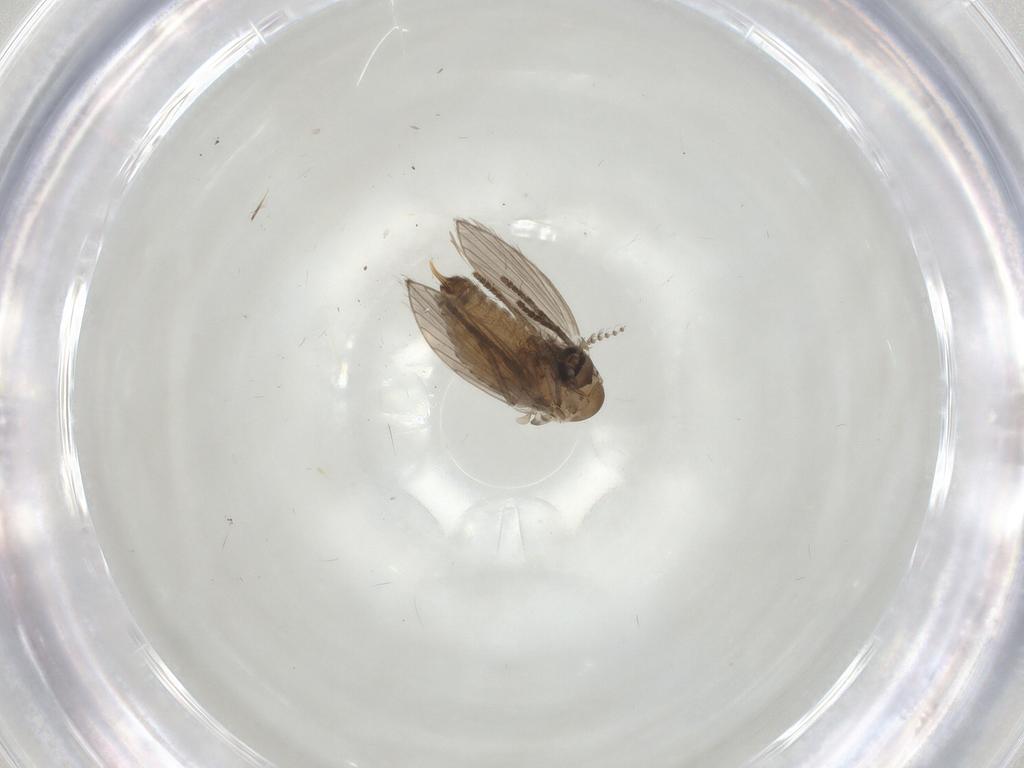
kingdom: Animalia
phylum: Arthropoda
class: Insecta
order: Diptera
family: Psychodidae
